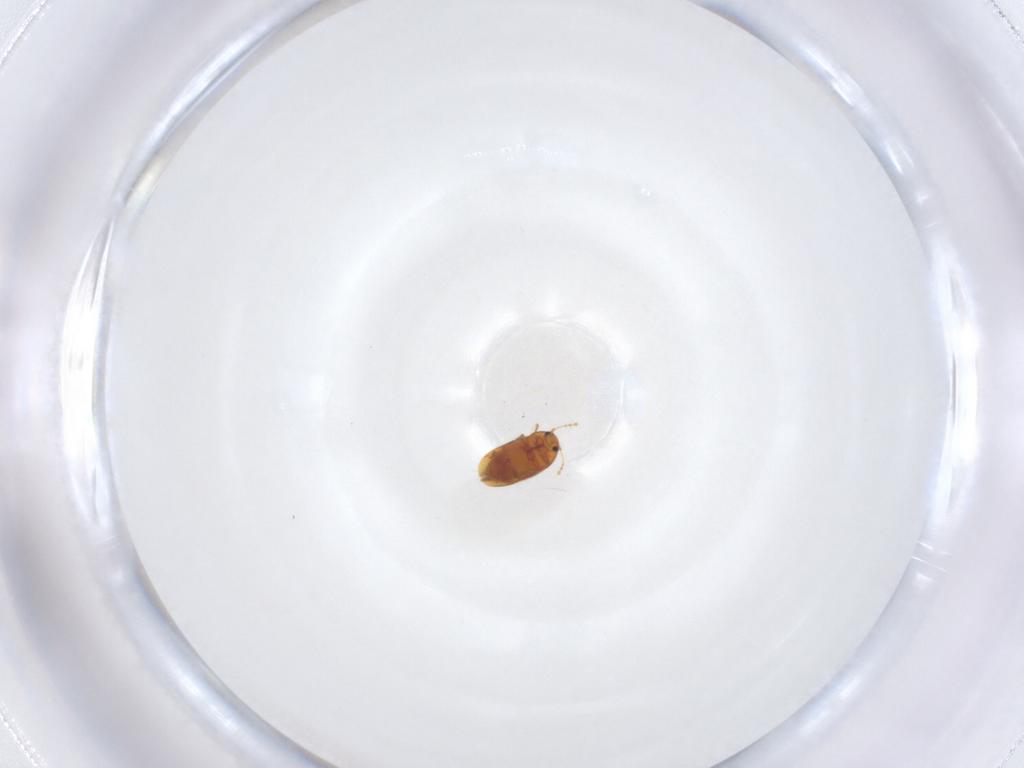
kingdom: Animalia
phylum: Arthropoda
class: Insecta
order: Coleoptera
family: Ptiliidae
